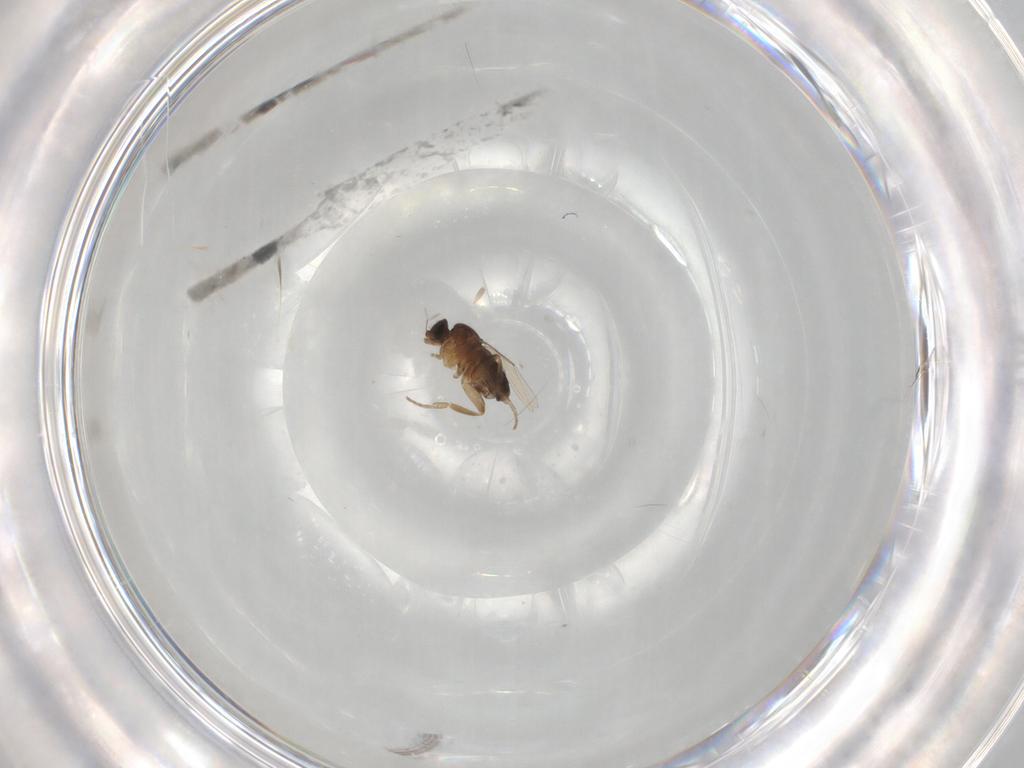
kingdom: Animalia
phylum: Arthropoda
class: Insecta
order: Diptera
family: Phoridae
